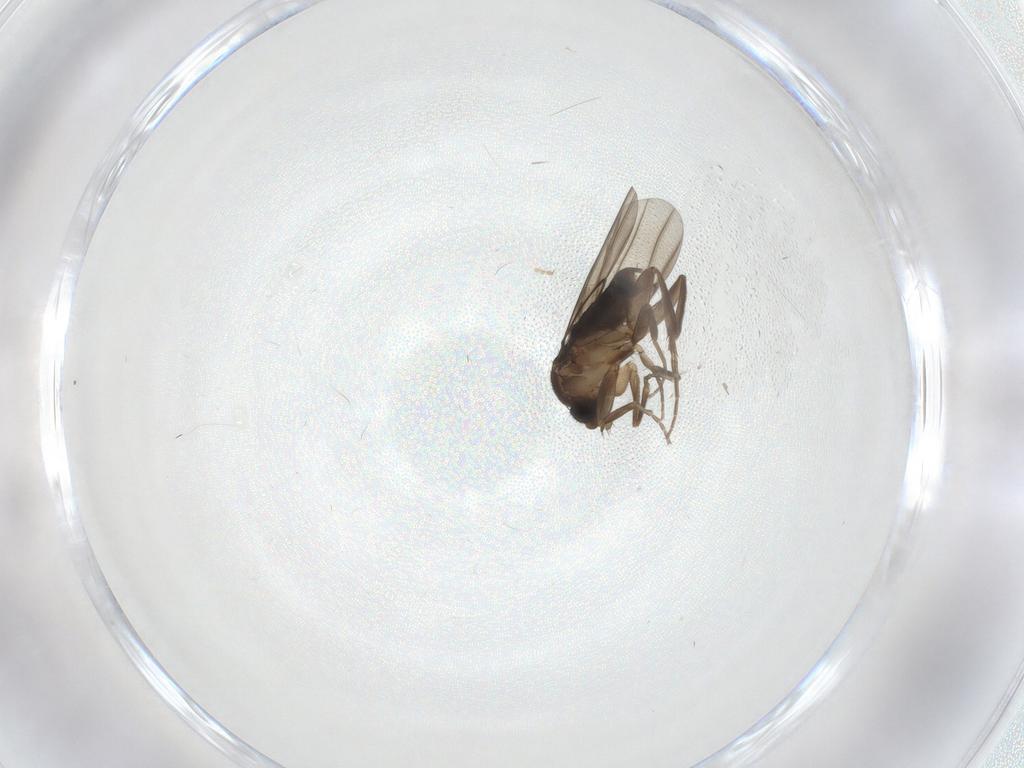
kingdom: Animalia
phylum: Arthropoda
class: Insecta
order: Diptera
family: Phoridae
